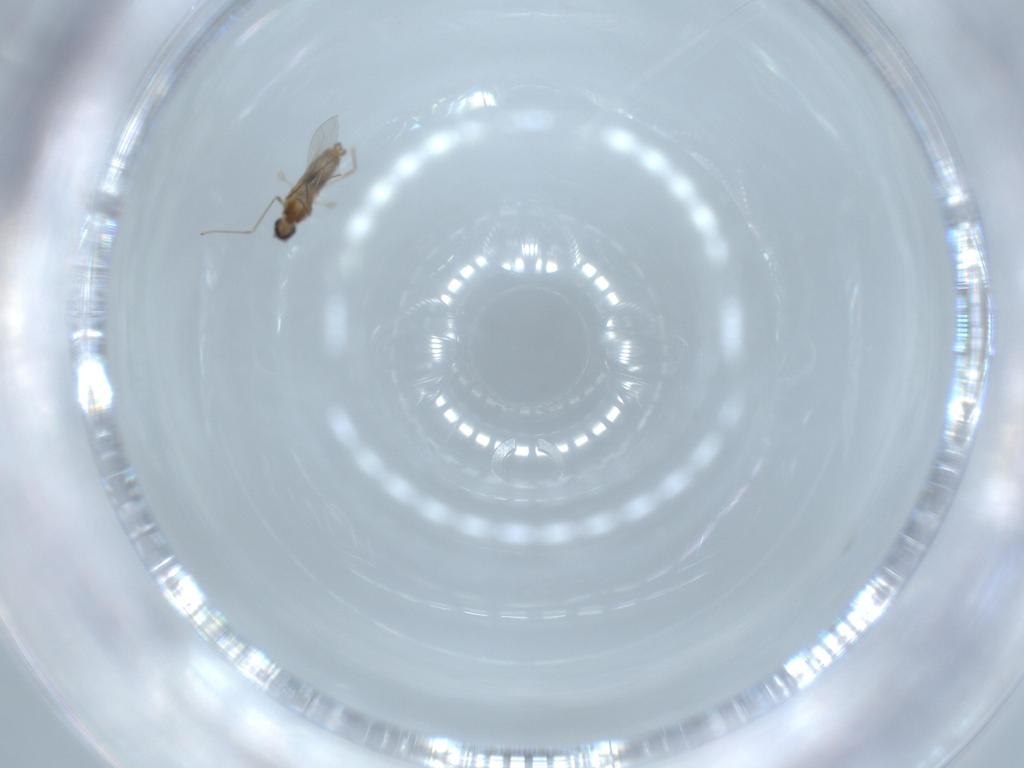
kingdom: Animalia
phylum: Arthropoda
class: Insecta
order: Diptera
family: Cecidomyiidae
